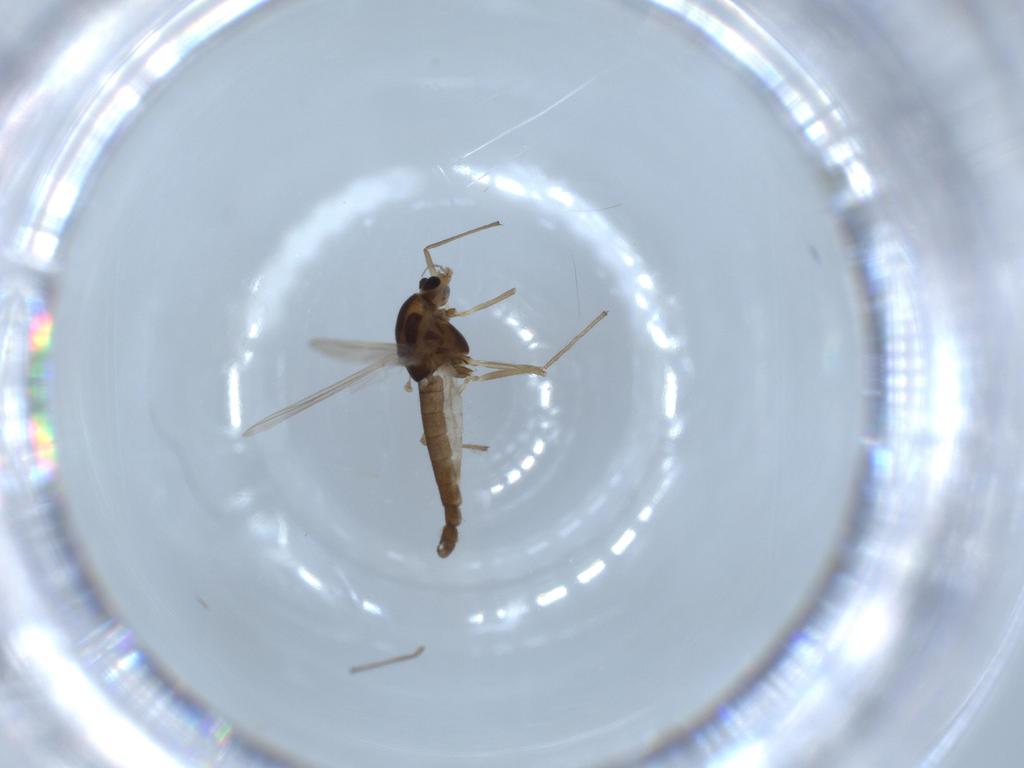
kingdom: Animalia
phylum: Arthropoda
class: Insecta
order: Diptera
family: Chironomidae
